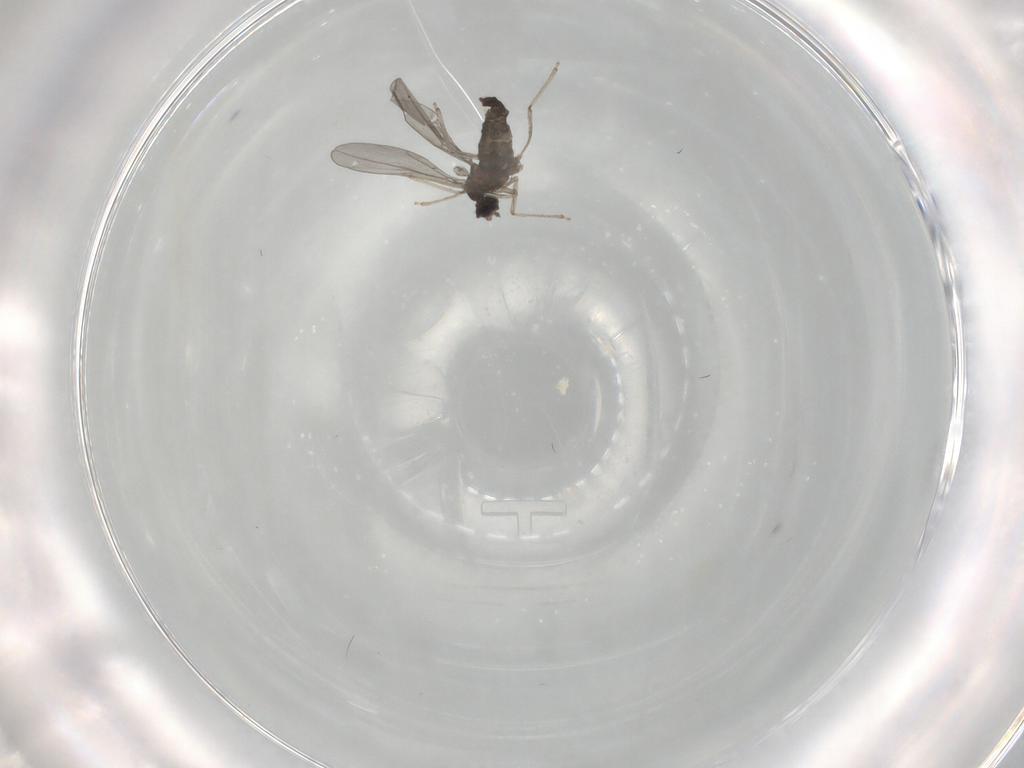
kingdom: Animalia
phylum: Arthropoda
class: Insecta
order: Diptera
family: Cecidomyiidae
